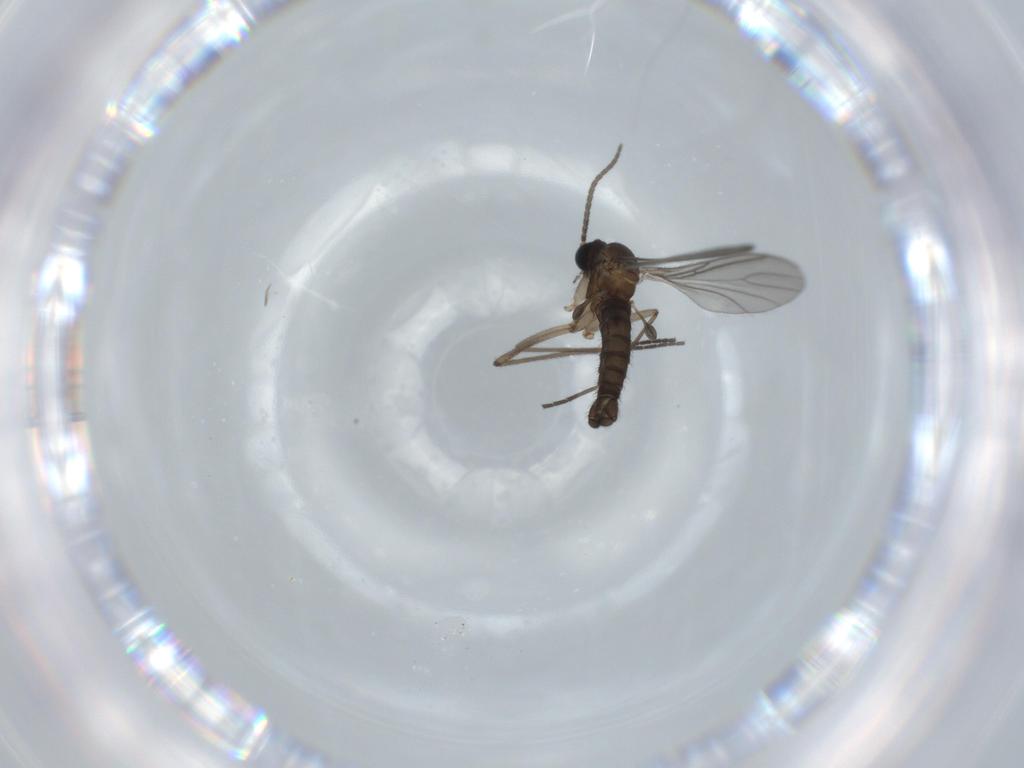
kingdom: Animalia
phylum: Arthropoda
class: Insecta
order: Diptera
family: Sciaridae
